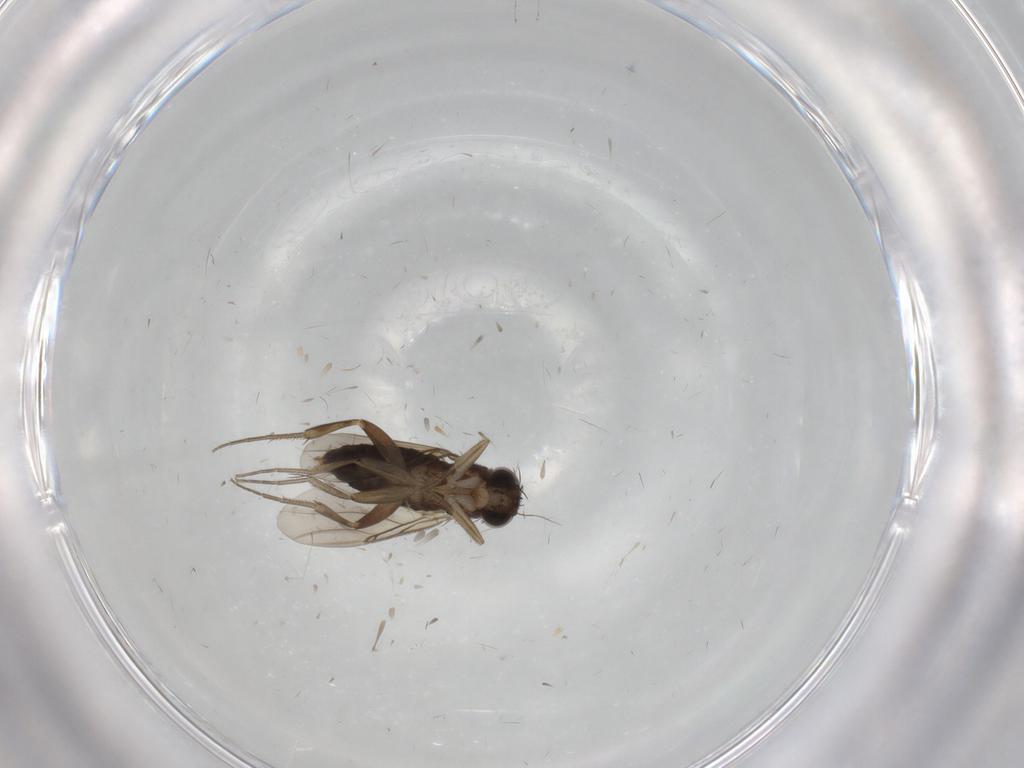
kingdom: Animalia
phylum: Arthropoda
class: Insecta
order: Diptera
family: Phoridae
